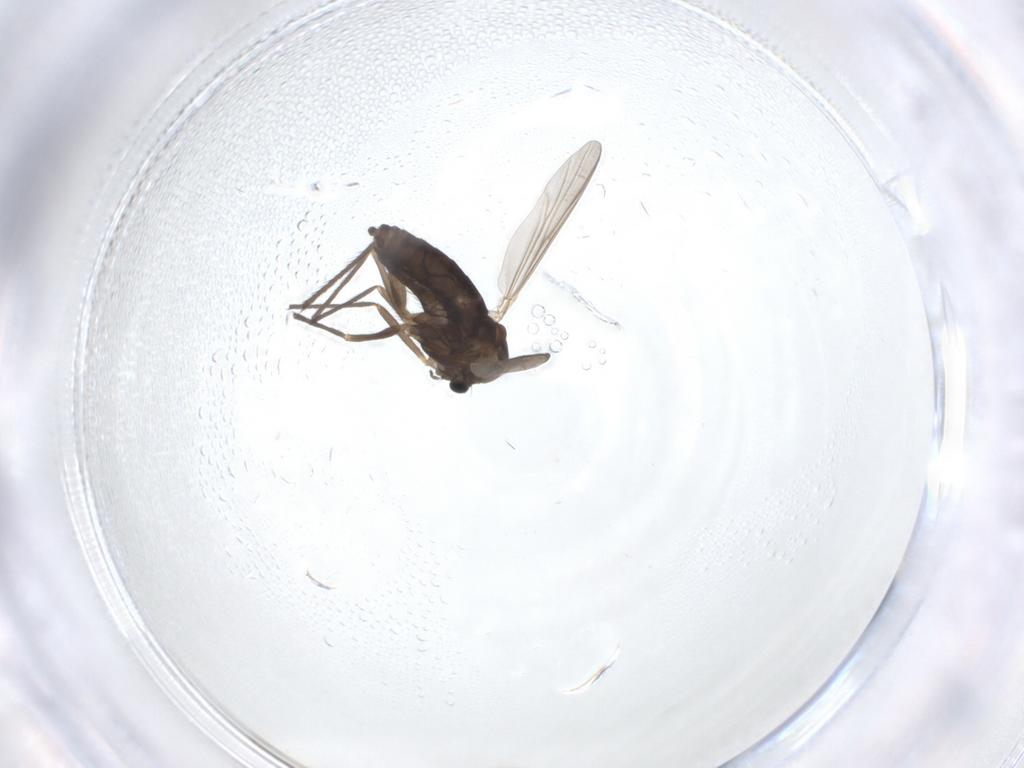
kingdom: Animalia
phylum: Arthropoda
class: Insecta
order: Diptera
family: Chironomidae
